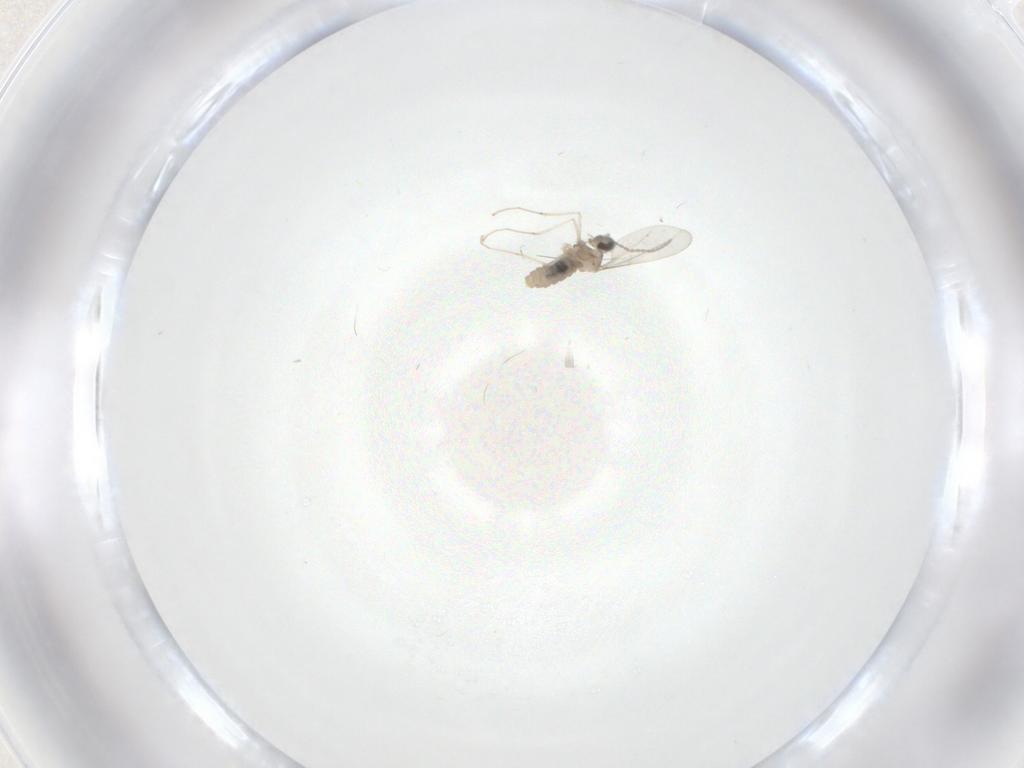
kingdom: Animalia
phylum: Arthropoda
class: Insecta
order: Diptera
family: Cecidomyiidae
